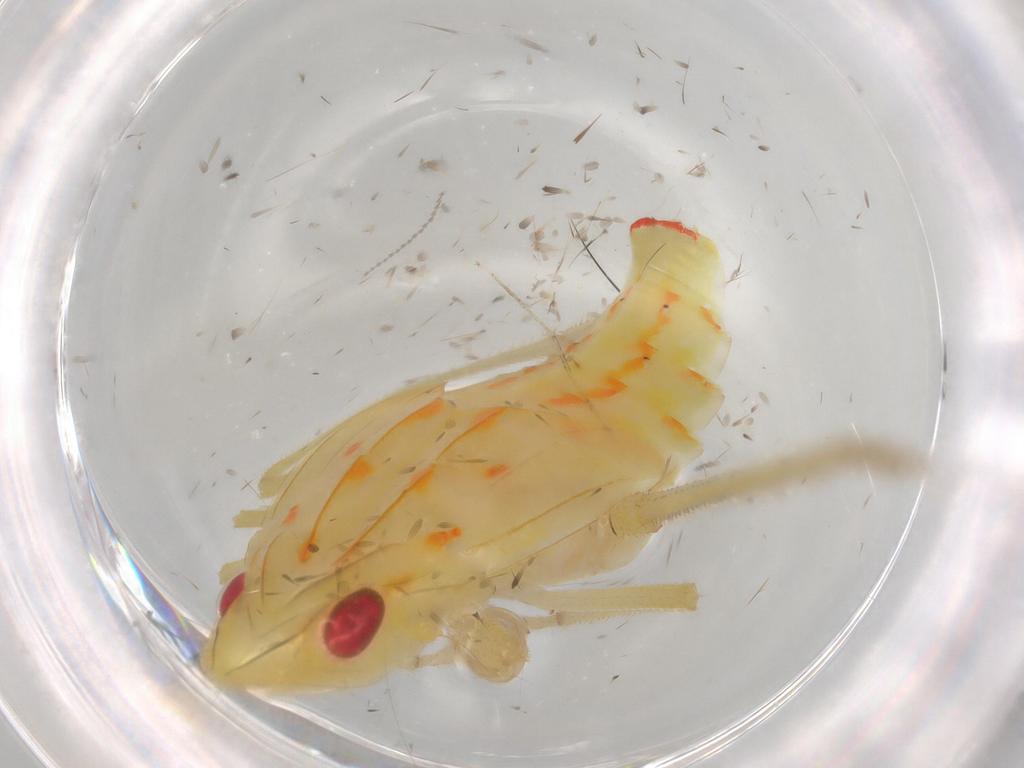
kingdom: Animalia
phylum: Arthropoda
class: Insecta
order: Hemiptera
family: Tropiduchidae
